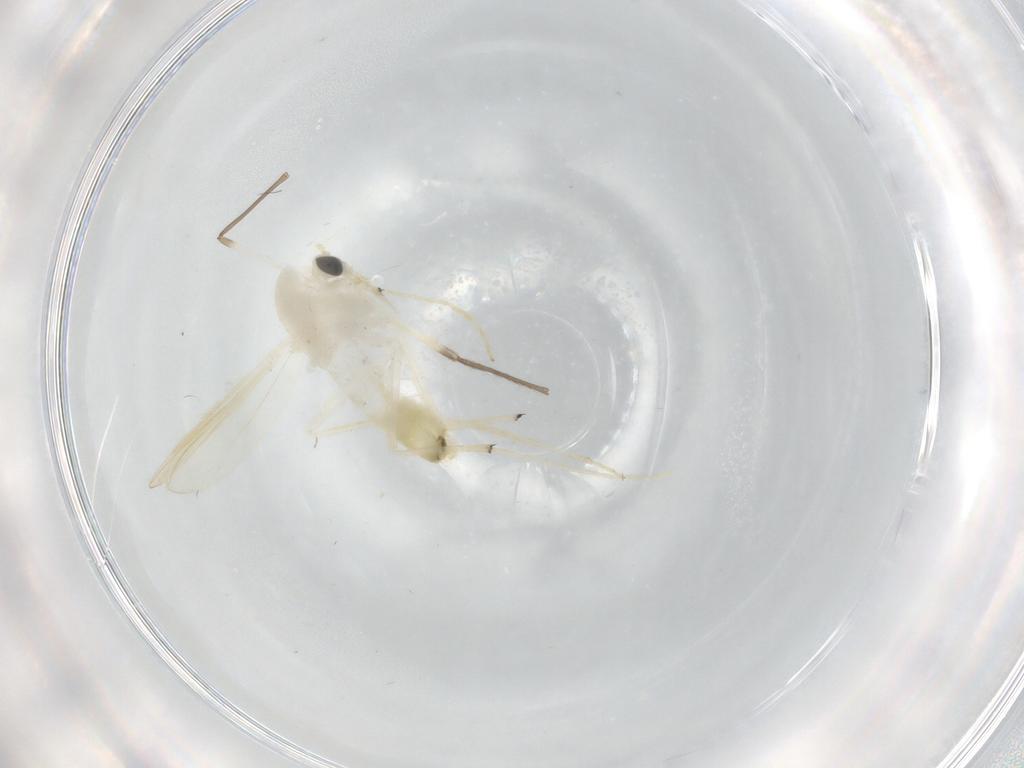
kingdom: Animalia
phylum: Arthropoda
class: Insecta
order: Diptera
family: Chironomidae
